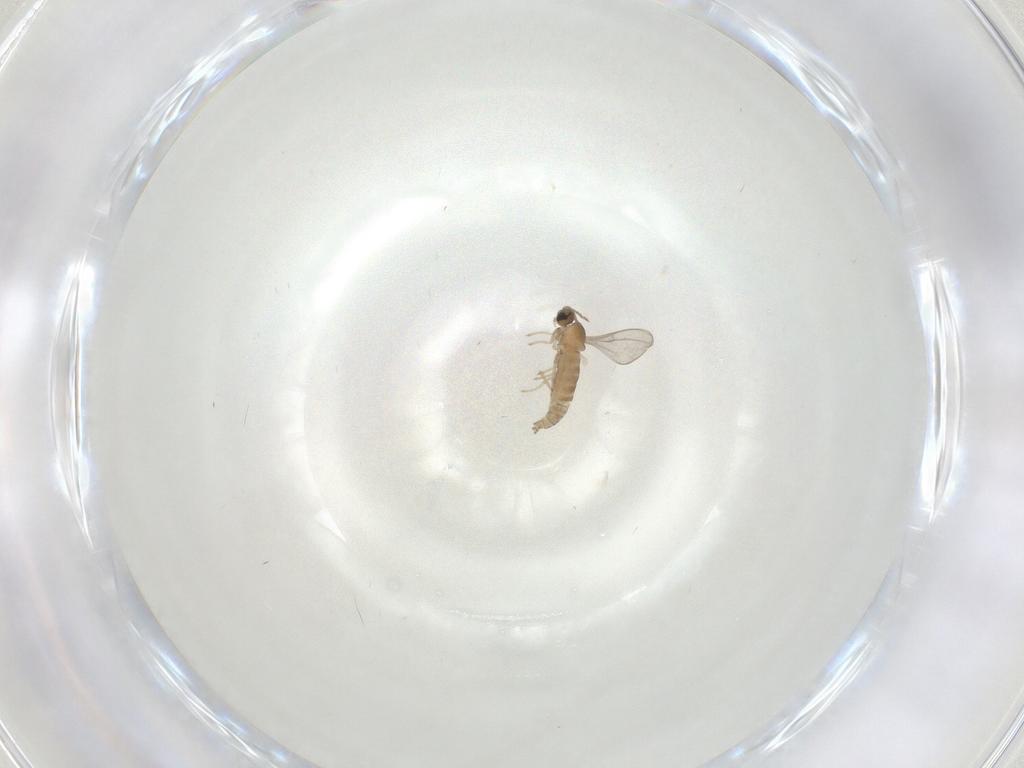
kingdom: Animalia
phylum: Arthropoda
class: Insecta
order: Diptera
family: Cecidomyiidae
